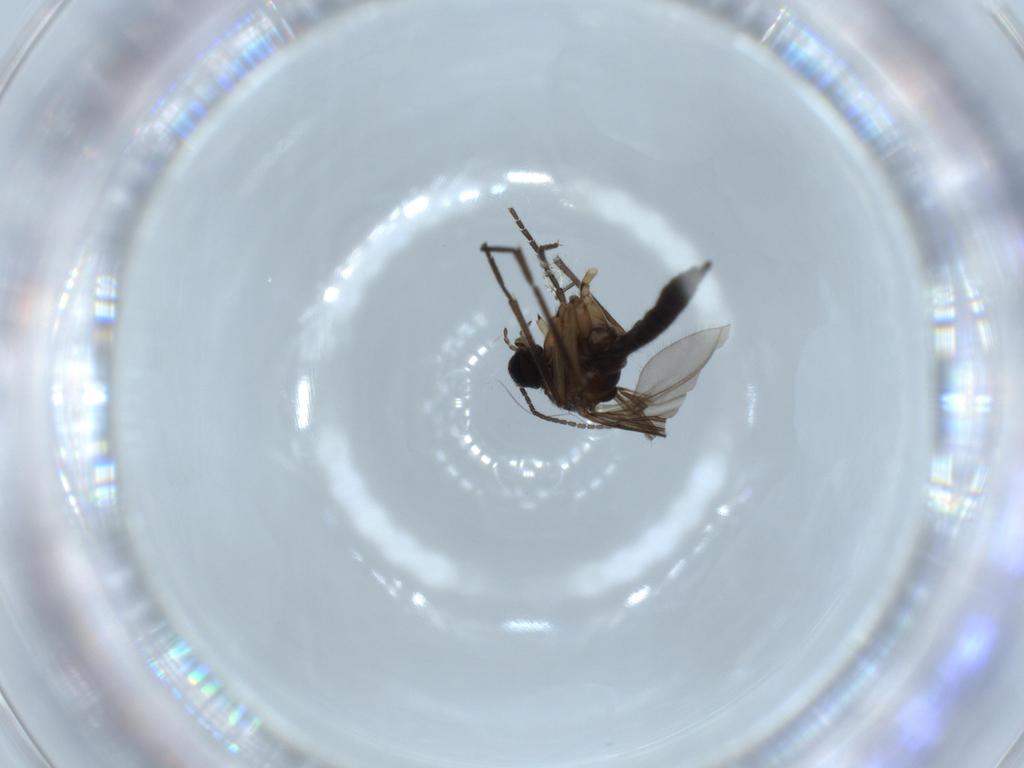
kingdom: Animalia
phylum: Arthropoda
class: Insecta
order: Diptera
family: Sciaridae
